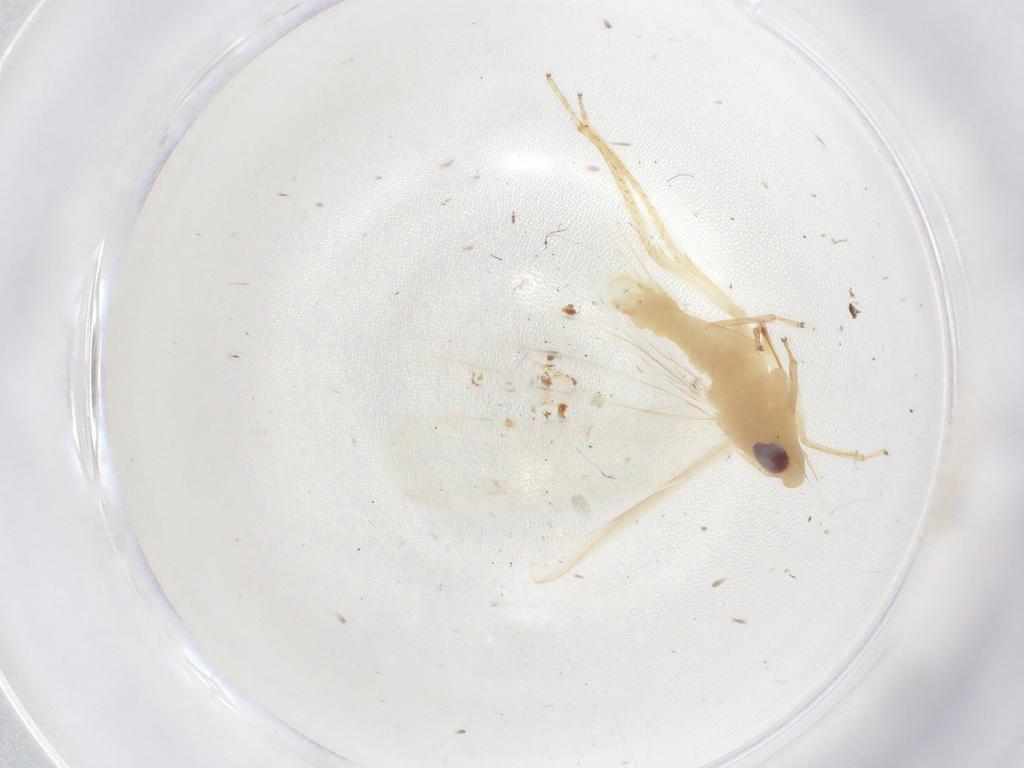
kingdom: Animalia
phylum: Arthropoda
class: Insecta
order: Hemiptera
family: Cicadellidae
